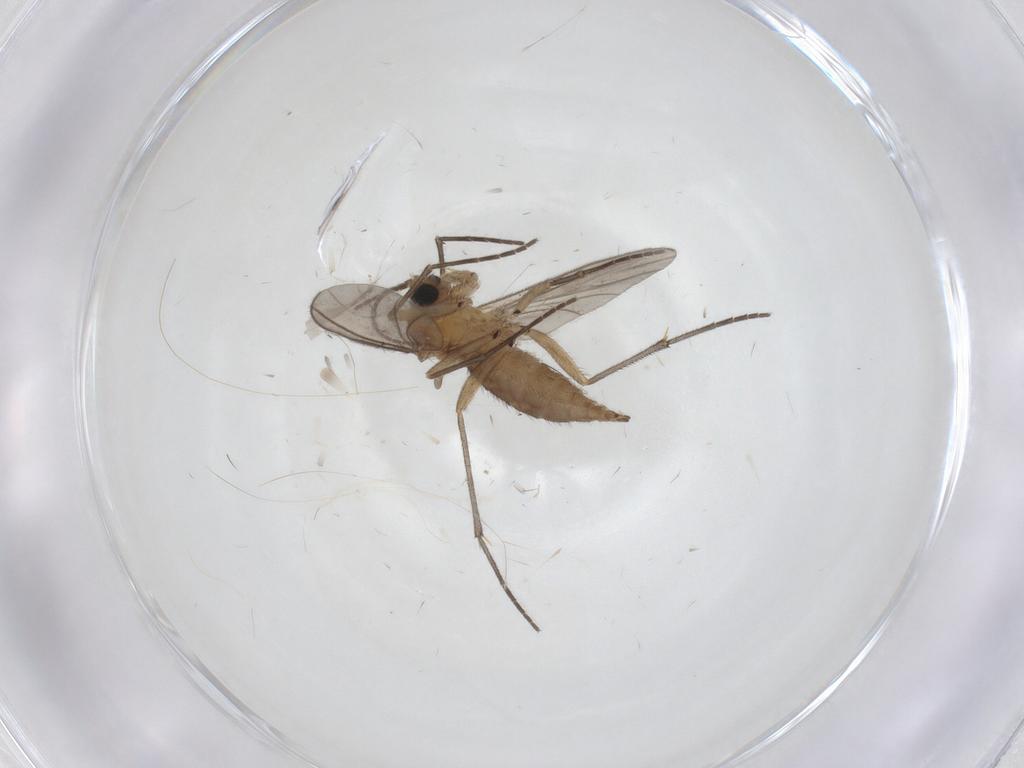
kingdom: Animalia
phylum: Arthropoda
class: Insecta
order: Diptera
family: Sciaridae
